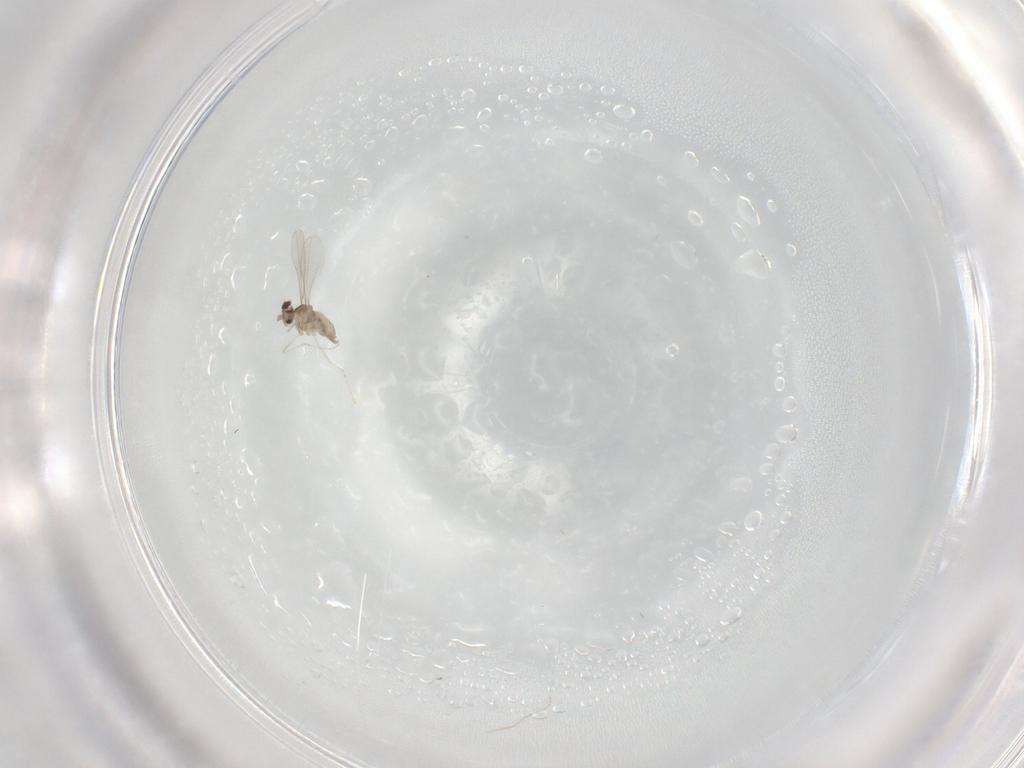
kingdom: Animalia
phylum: Arthropoda
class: Insecta
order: Diptera
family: Cecidomyiidae
